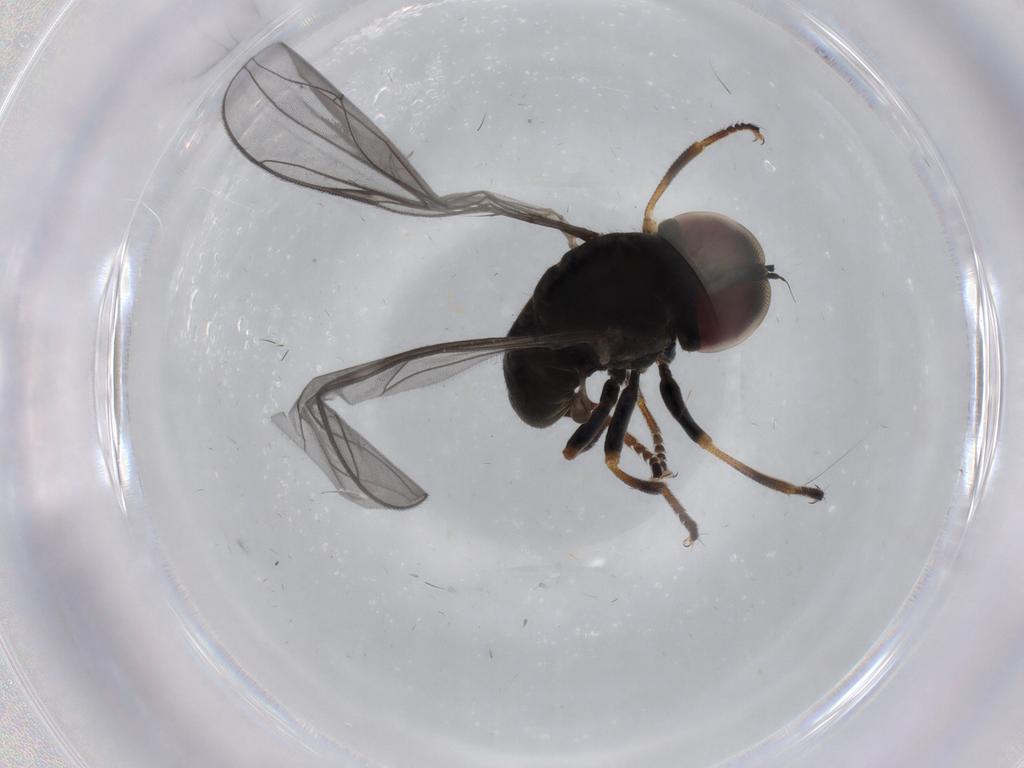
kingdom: Animalia
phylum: Arthropoda
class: Insecta
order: Diptera
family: Pipunculidae
